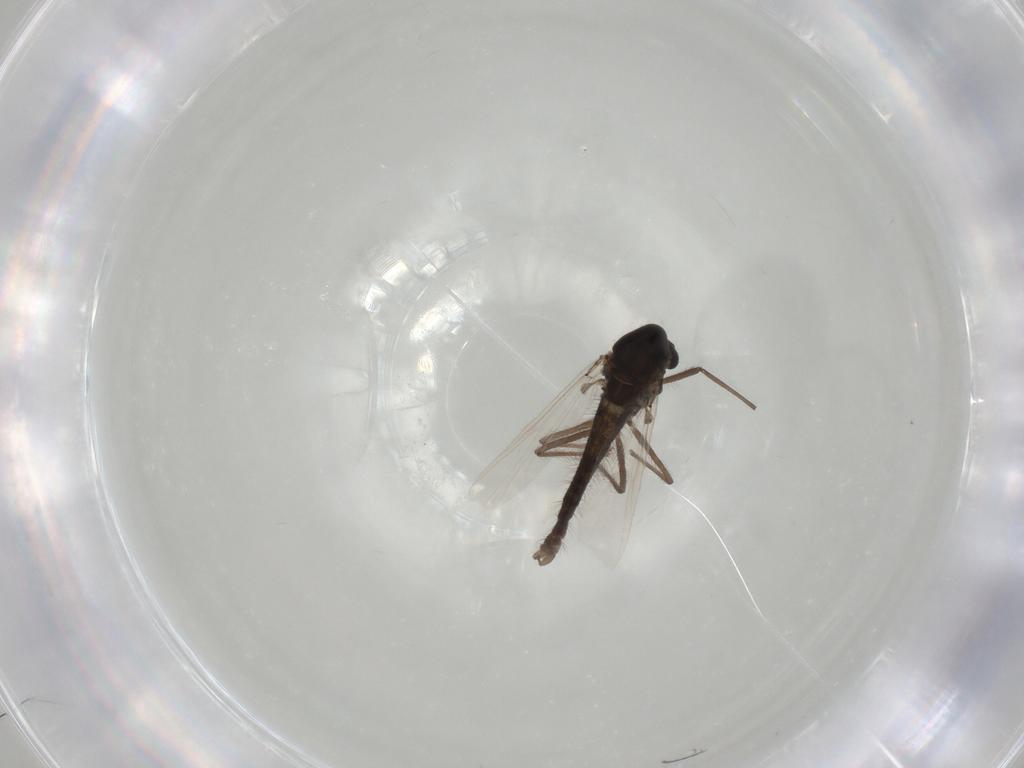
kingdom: Animalia
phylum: Arthropoda
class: Insecta
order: Diptera
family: Chironomidae
